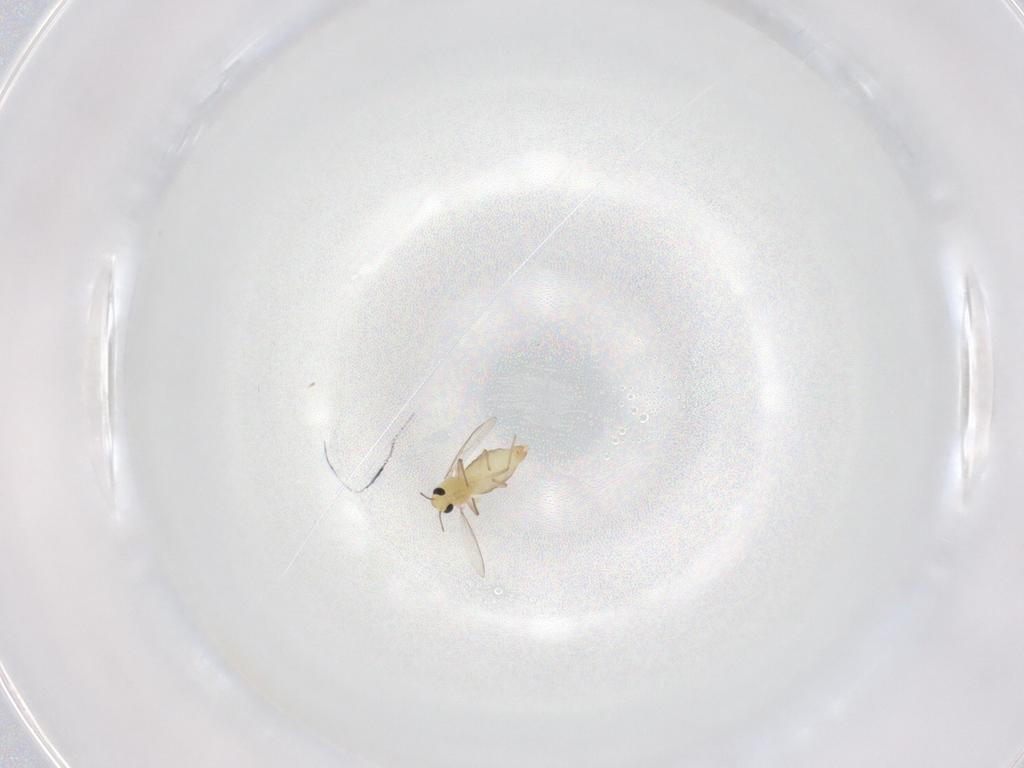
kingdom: Animalia
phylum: Arthropoda
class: Insecta
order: Diptera
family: Chironomidae
